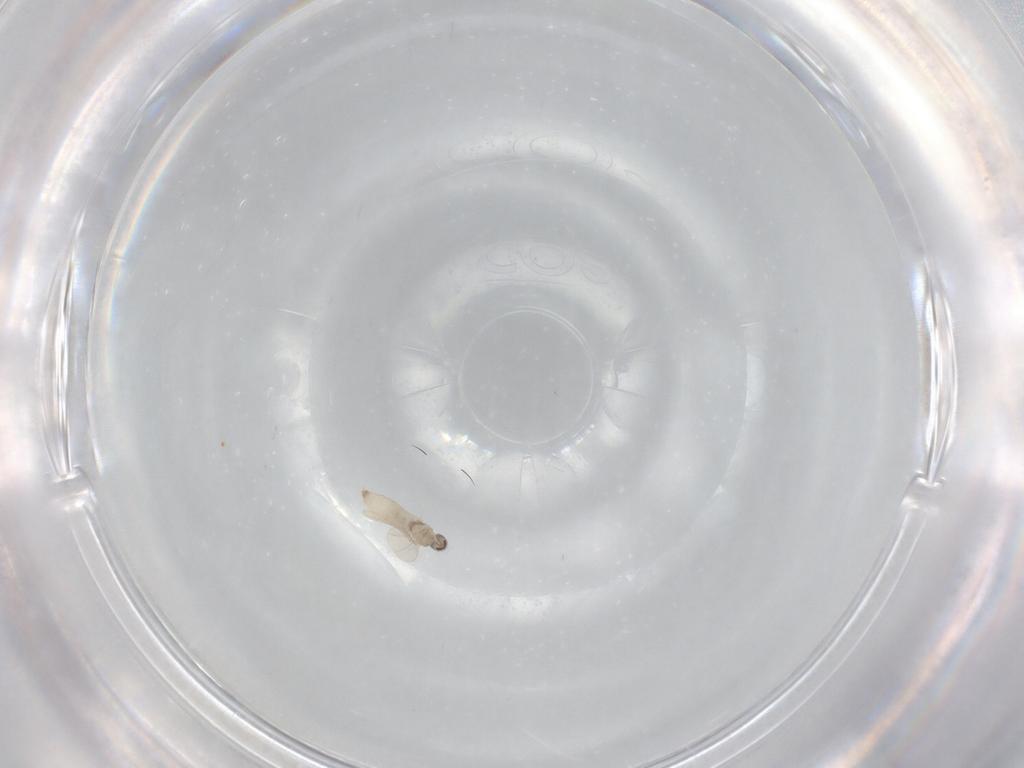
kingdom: Animalia
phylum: Arthropoda
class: Insecta
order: Diptera
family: Cecidomyiidae
